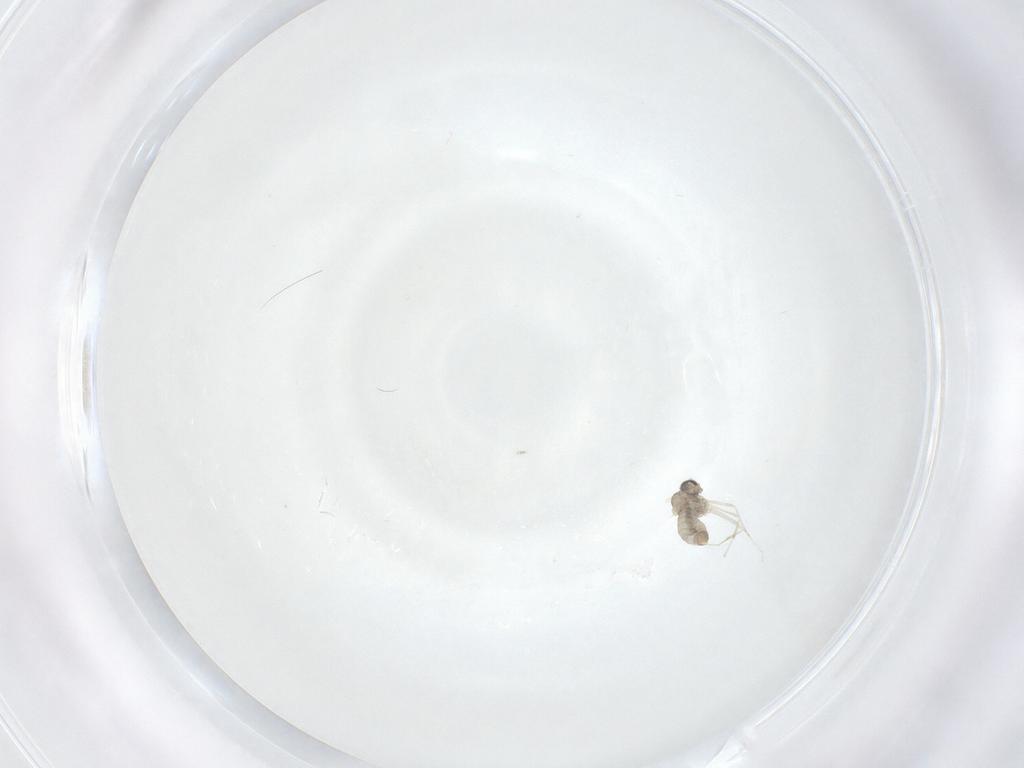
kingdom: Animalia
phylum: Arthropoda
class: Insecta
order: Diptera
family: Cecidomyiidae
